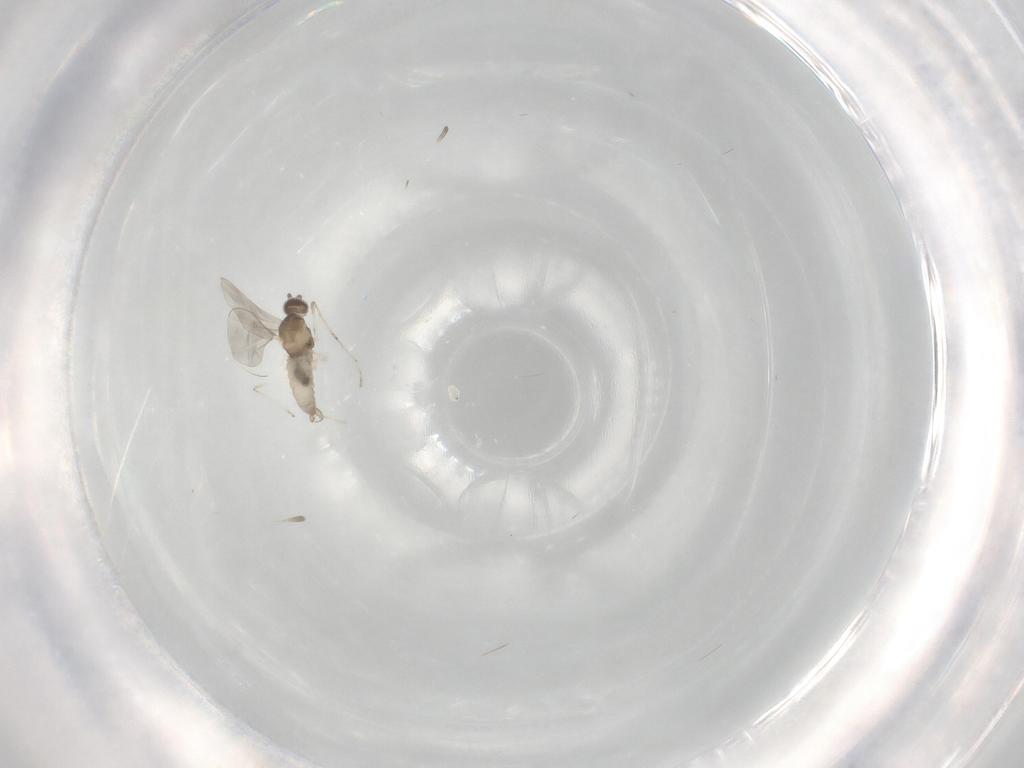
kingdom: Animalia
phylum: Arthropoda
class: Insecta
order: Diptera
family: Cecidomyiidae
